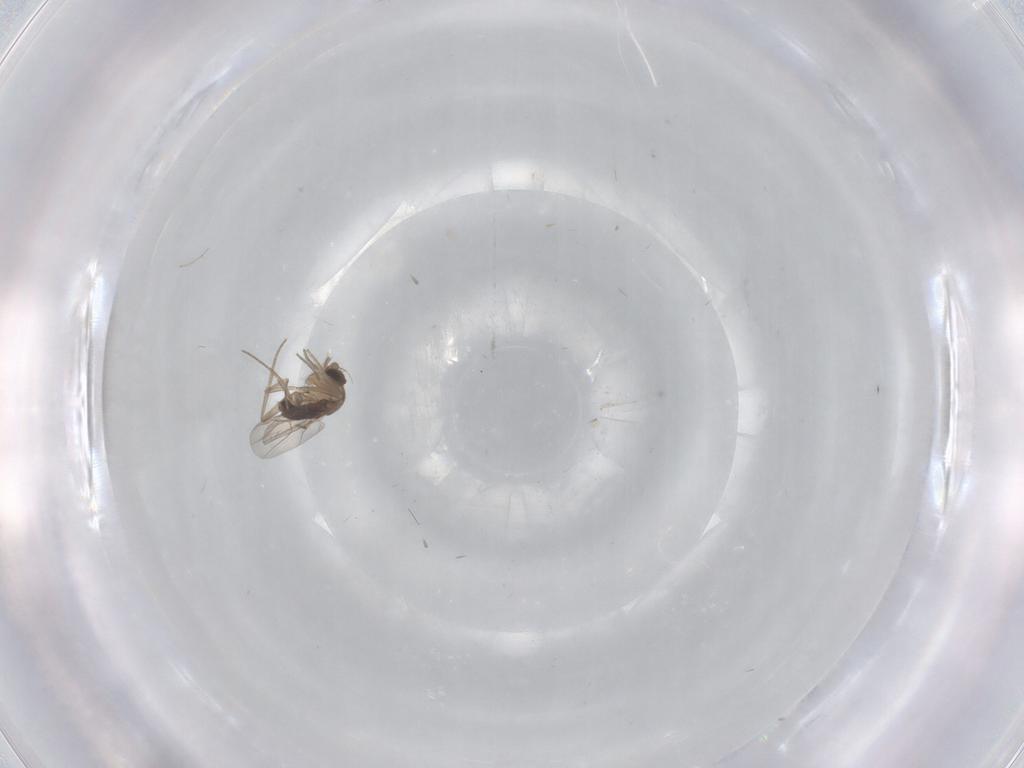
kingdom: Animalia
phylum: Arthropoda
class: Insecta
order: Diptera
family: Phoridae
